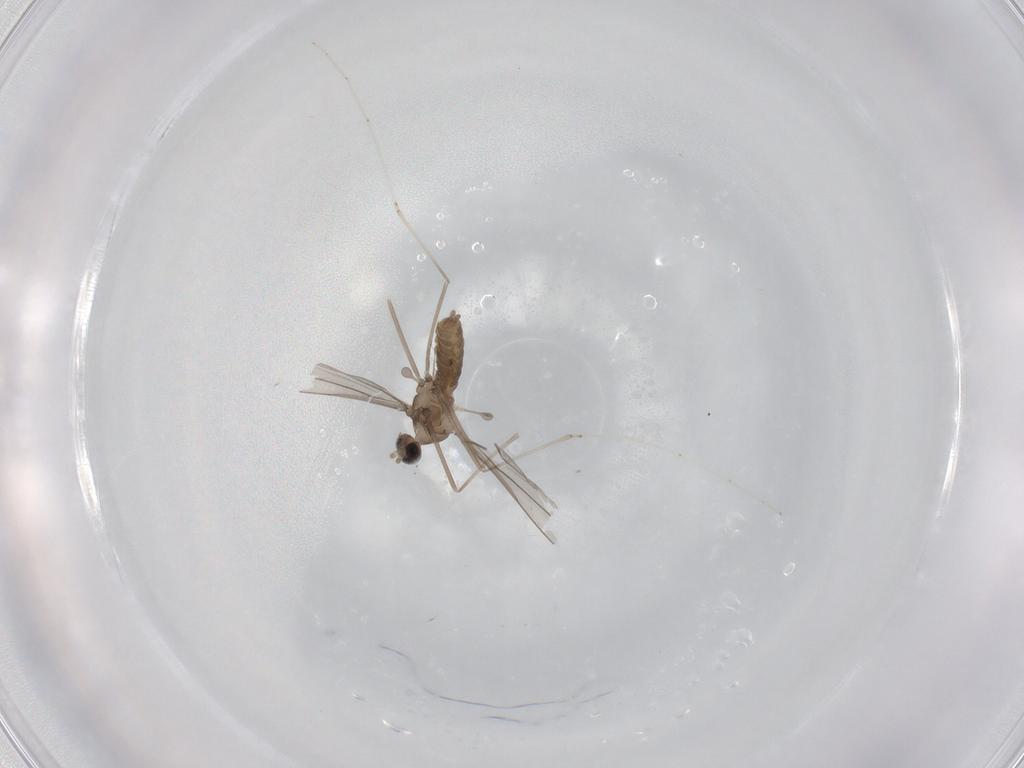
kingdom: Animalia
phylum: Arthropoda
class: Insecta
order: Diptera
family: Cecidomyiidae
